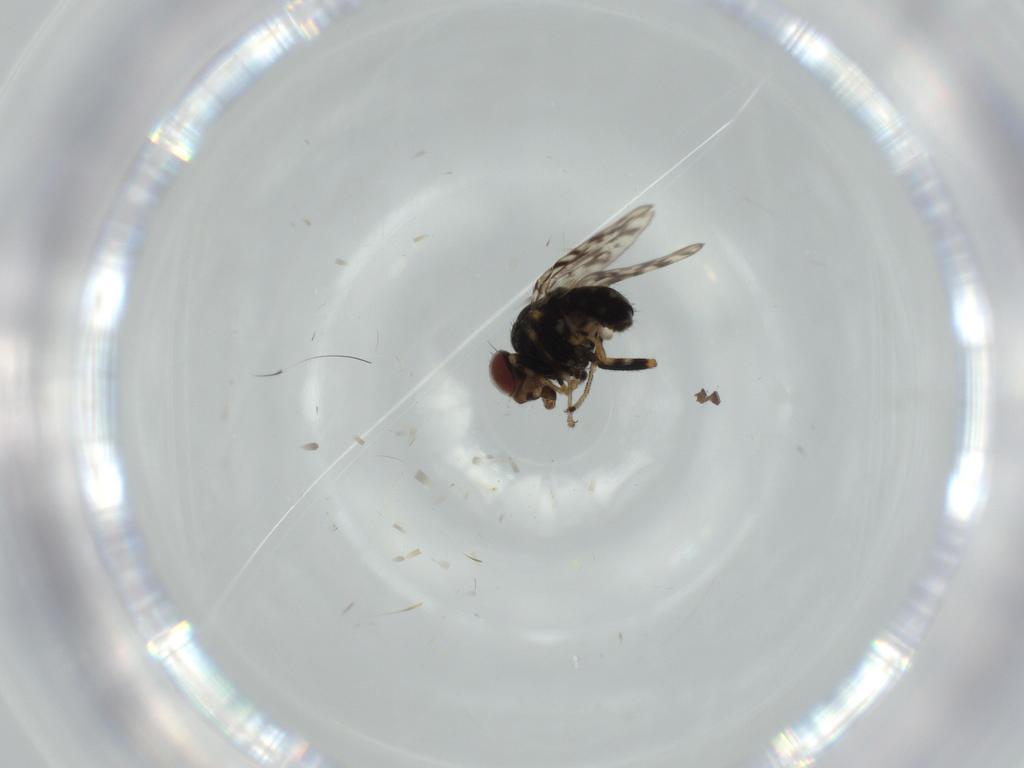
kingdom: Animalia
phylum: Arthropoda
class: Insecta
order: Diptera
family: Ephydridae
